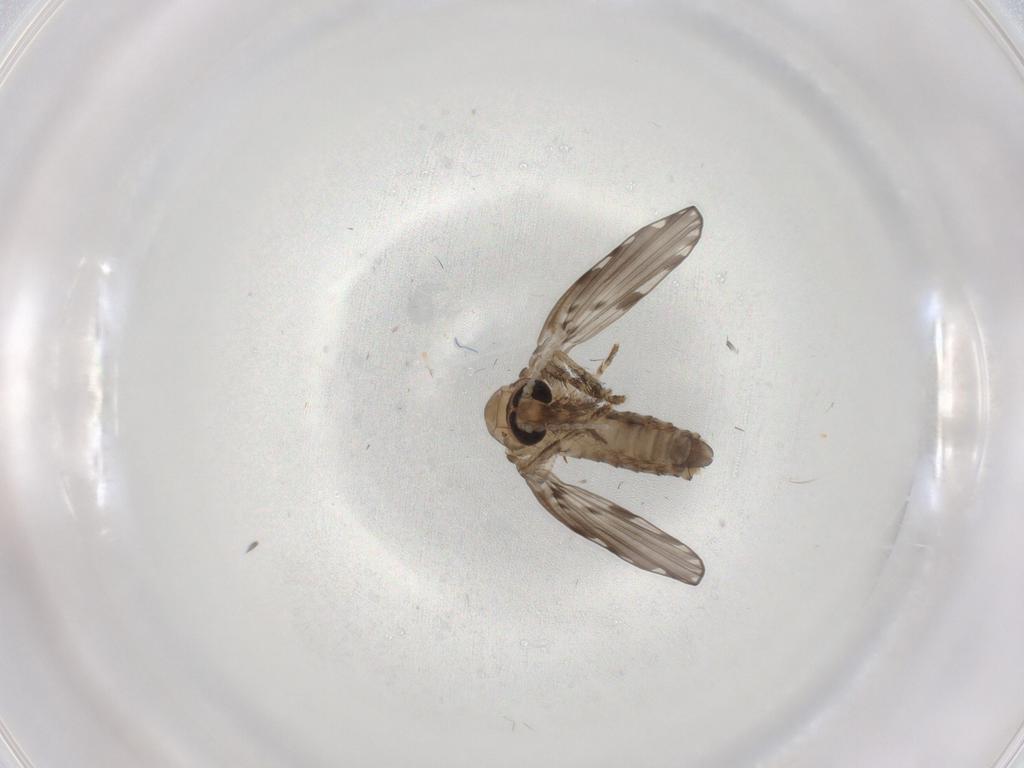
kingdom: Animalia
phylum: Arthropoda
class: Insecta
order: Diptera
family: Psychodidae
